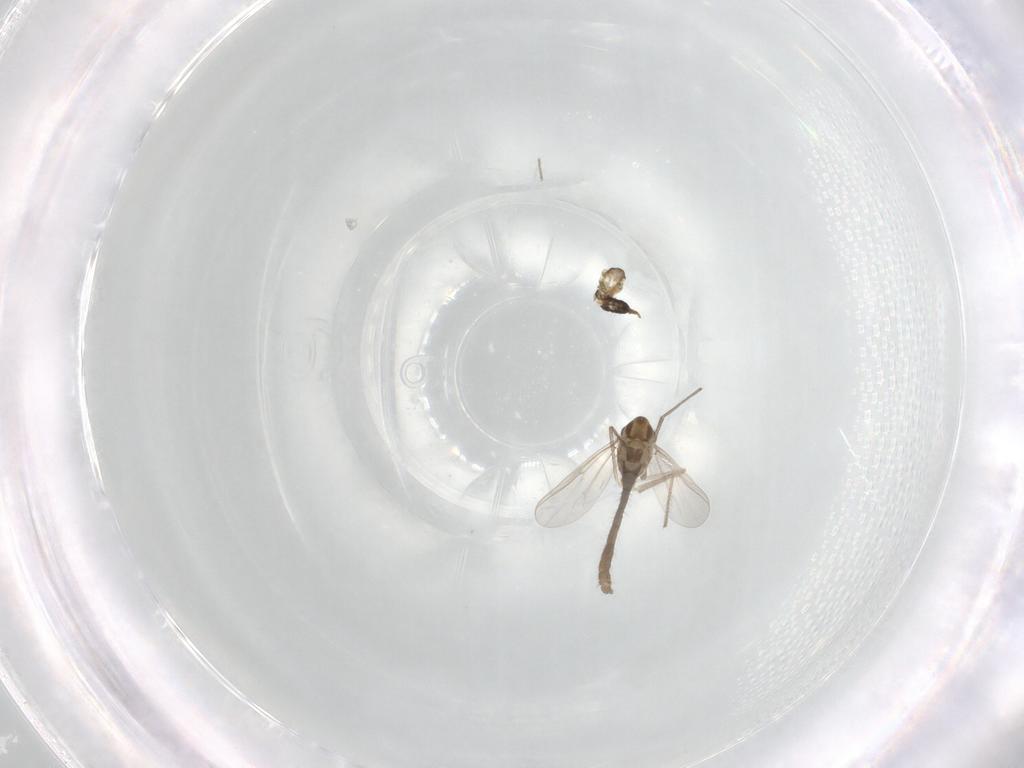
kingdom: Animalia
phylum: Arthropoda
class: Insecta
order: Diptera
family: Chironomidae
